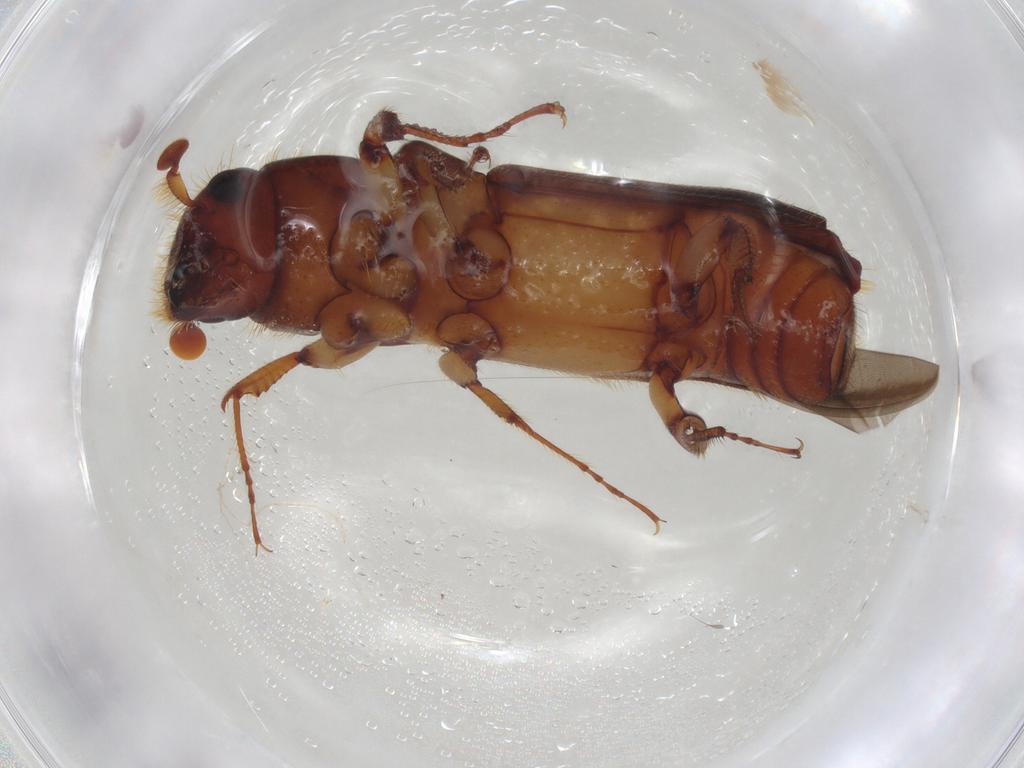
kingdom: Animalia
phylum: Arthropoda
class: Insecta
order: Coleoptera
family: Curculionidae
